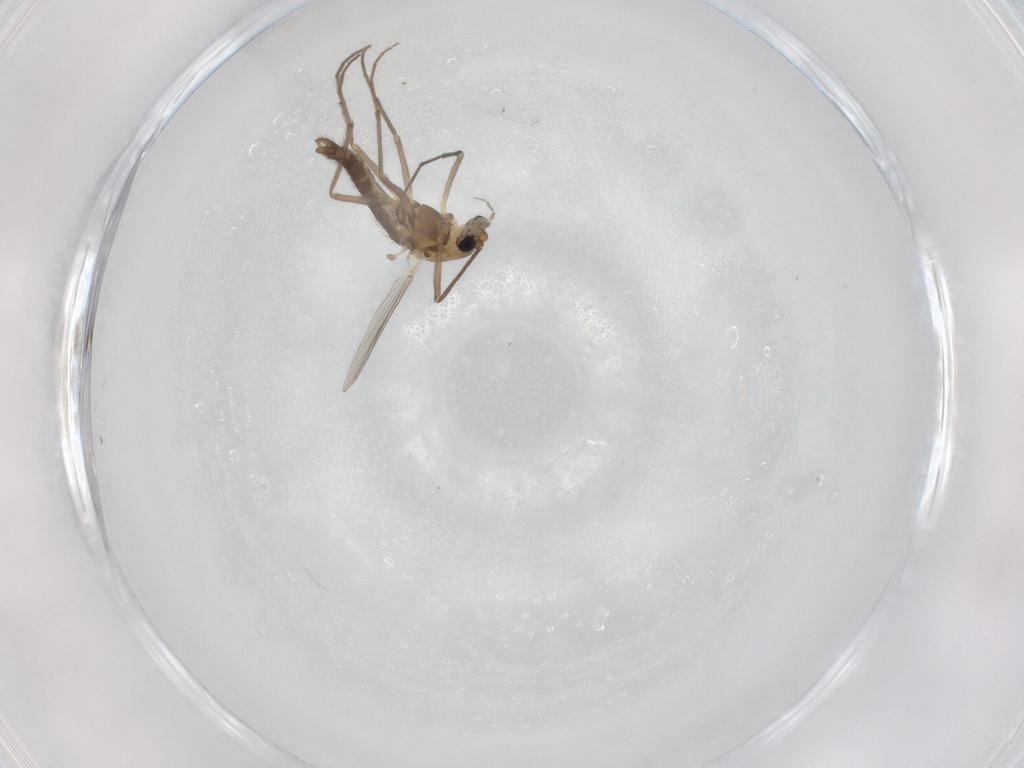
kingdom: Animalia
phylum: Arthropoda
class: Insecta
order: Diptera
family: Chironomidae
